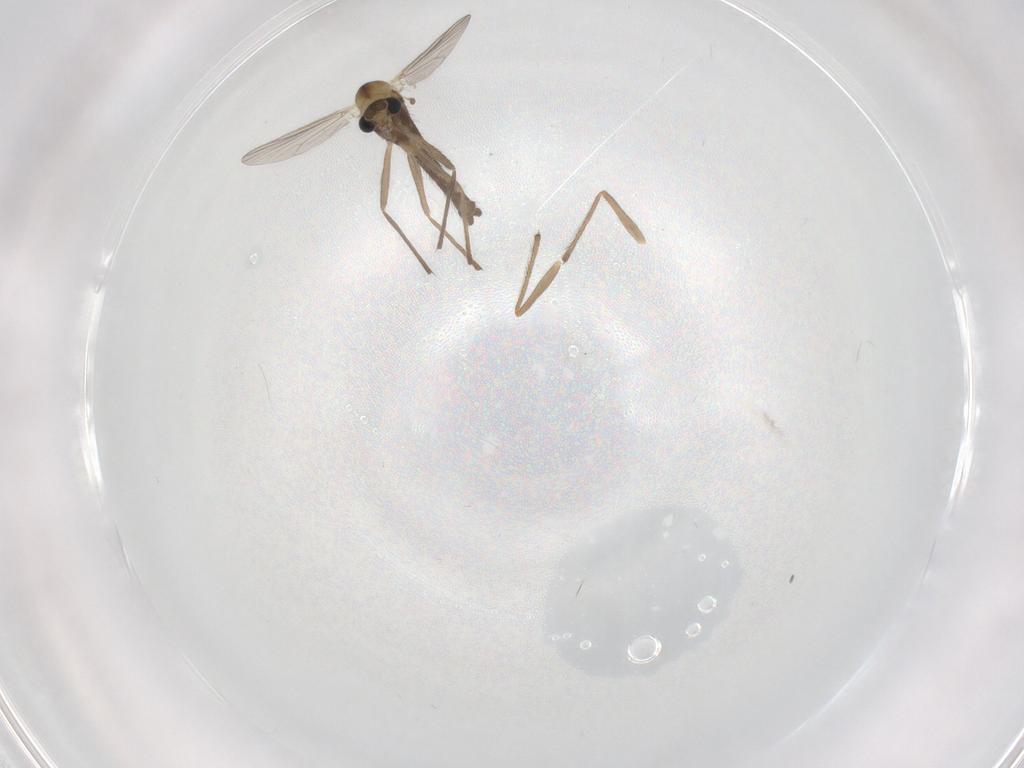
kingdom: Animalia
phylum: Arthropoda
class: Insecta
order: Diptera
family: Chironomidae
